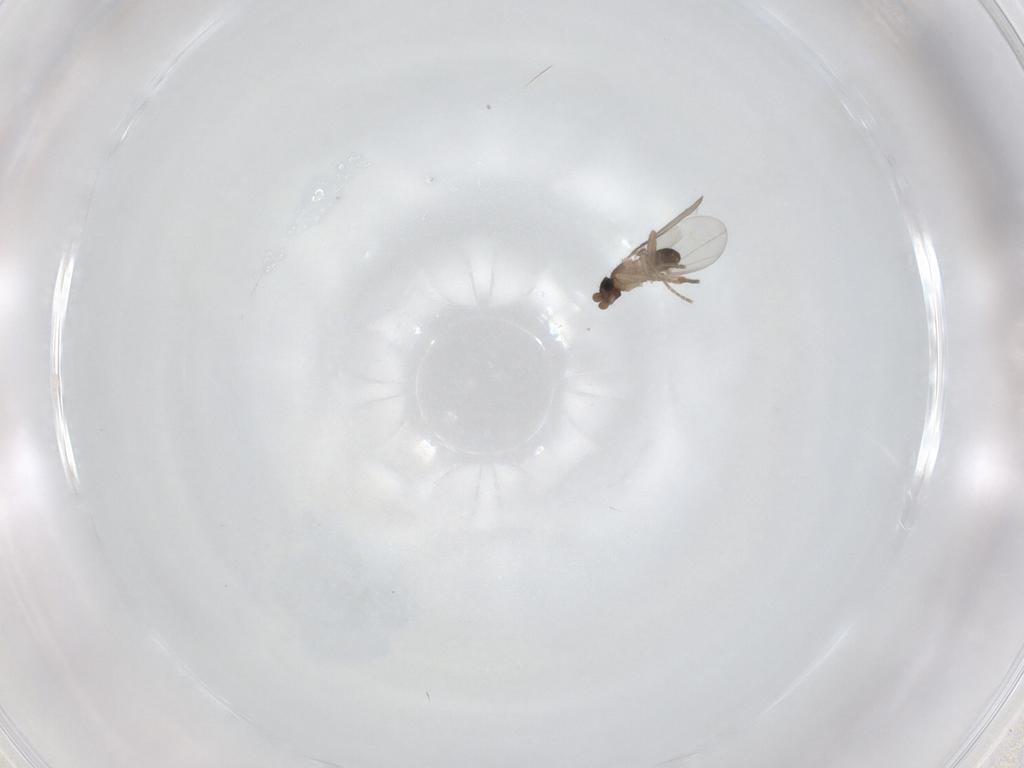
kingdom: Animalia
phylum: Arthropoda
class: Insecta
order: Diptera
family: Phoridae
